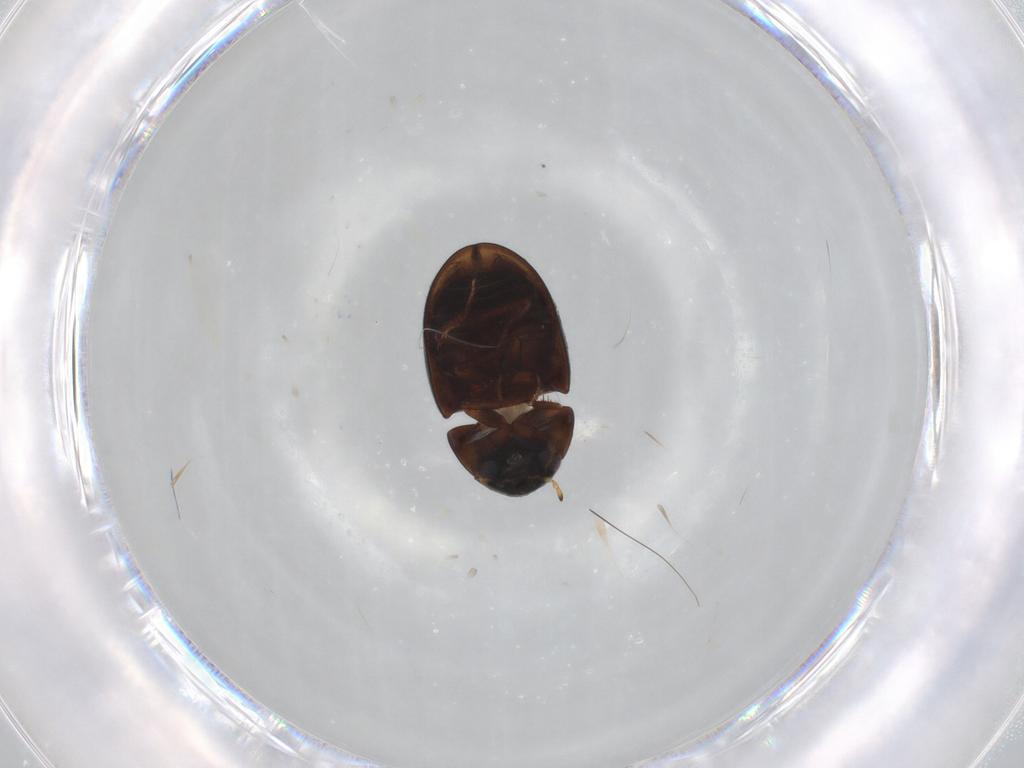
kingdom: Animalia
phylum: Arthropoda
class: Insecta
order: Coleoptera
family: Hydrophilidae
